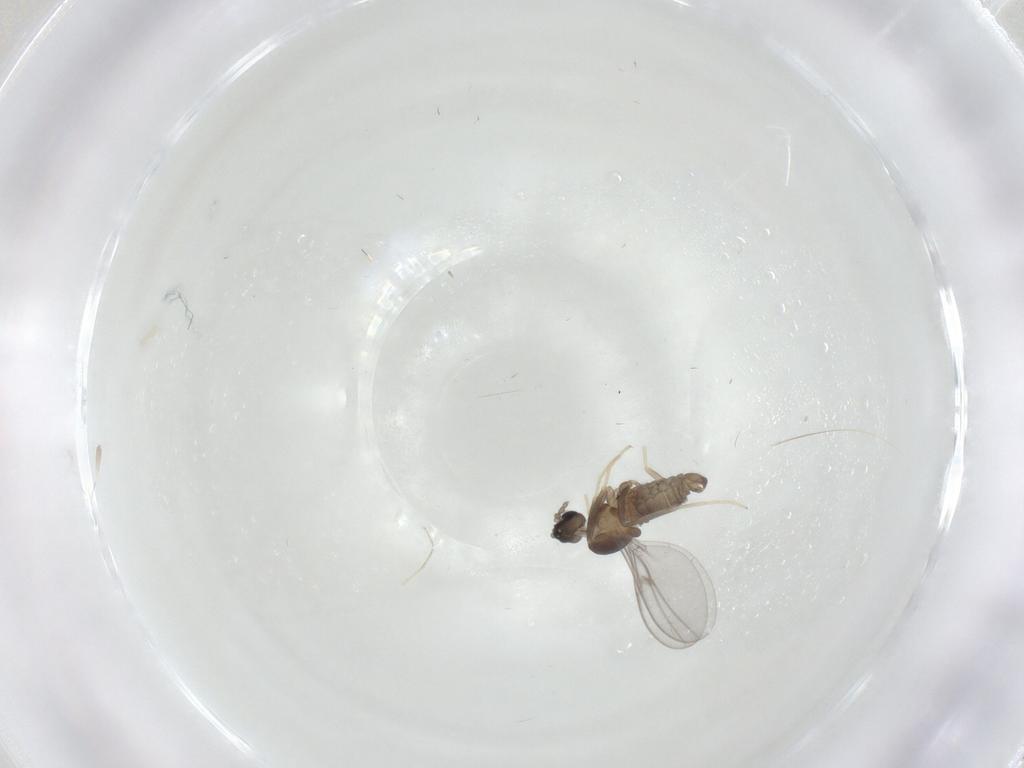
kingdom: Animalia
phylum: Arthropoda
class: Insecta
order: Diptera
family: Cecidomyiidae
